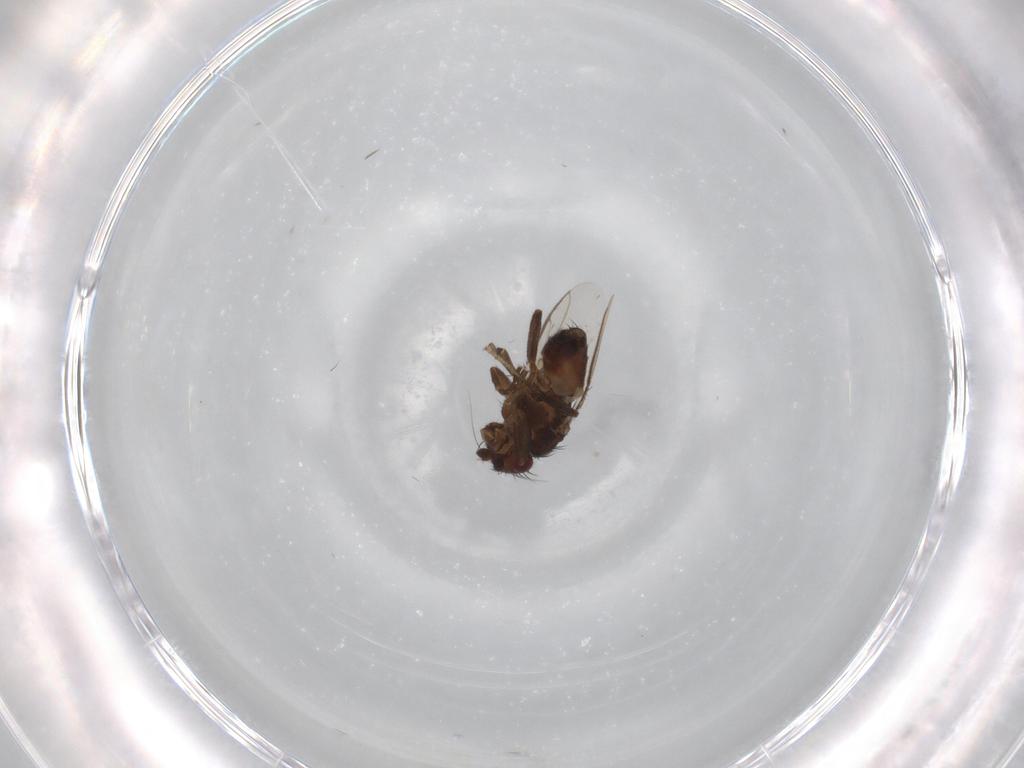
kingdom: Animalia
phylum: Arthropoda
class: Insecta
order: Diptera
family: Sphaeroceridae
